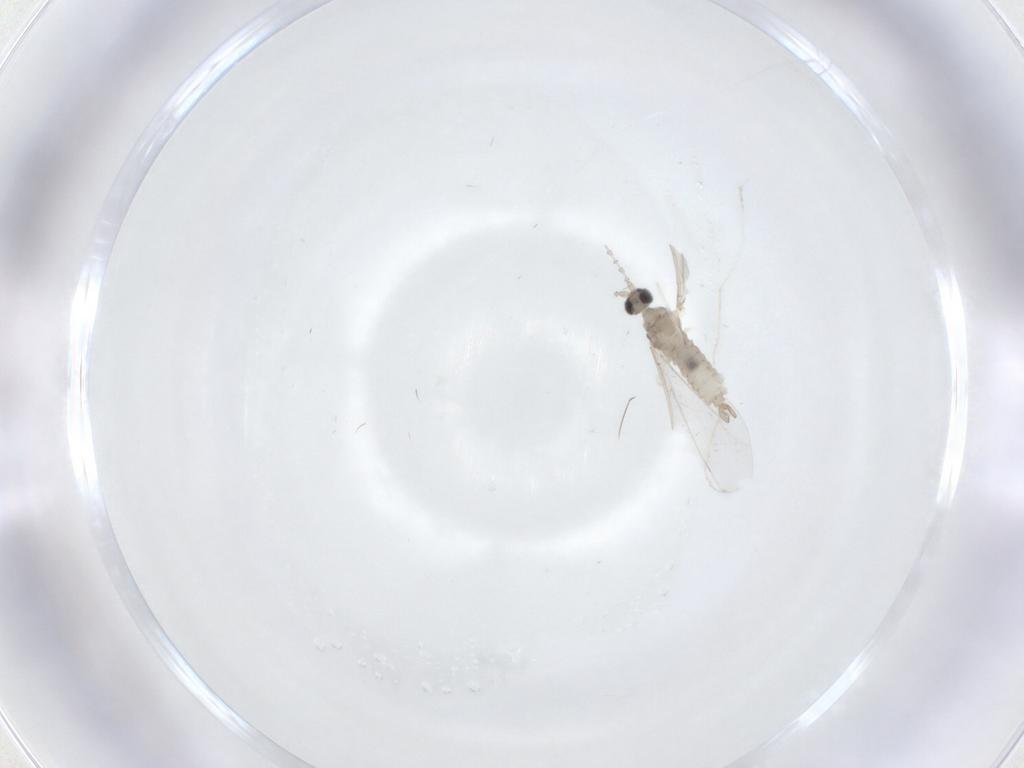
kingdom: Animalia
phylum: Arthropoda
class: Insecta
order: Diptera
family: Cecidomyiidae
